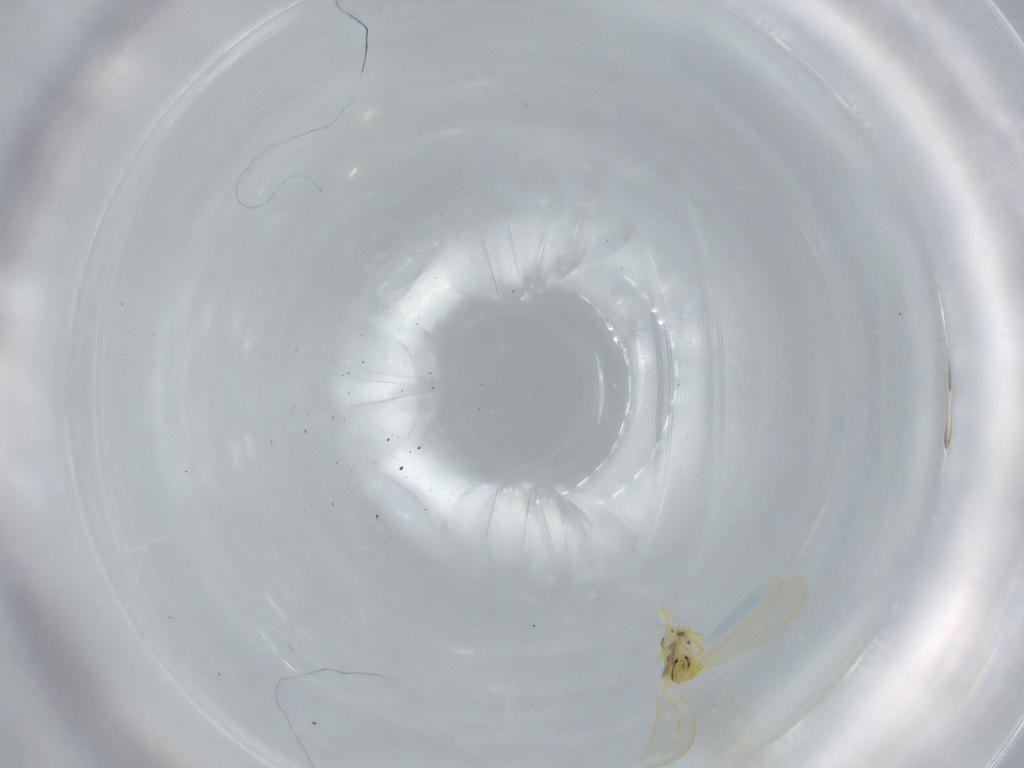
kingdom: Animalia
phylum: Arthropoda
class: Insecta
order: Hemiptera
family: Aleyrodidae
